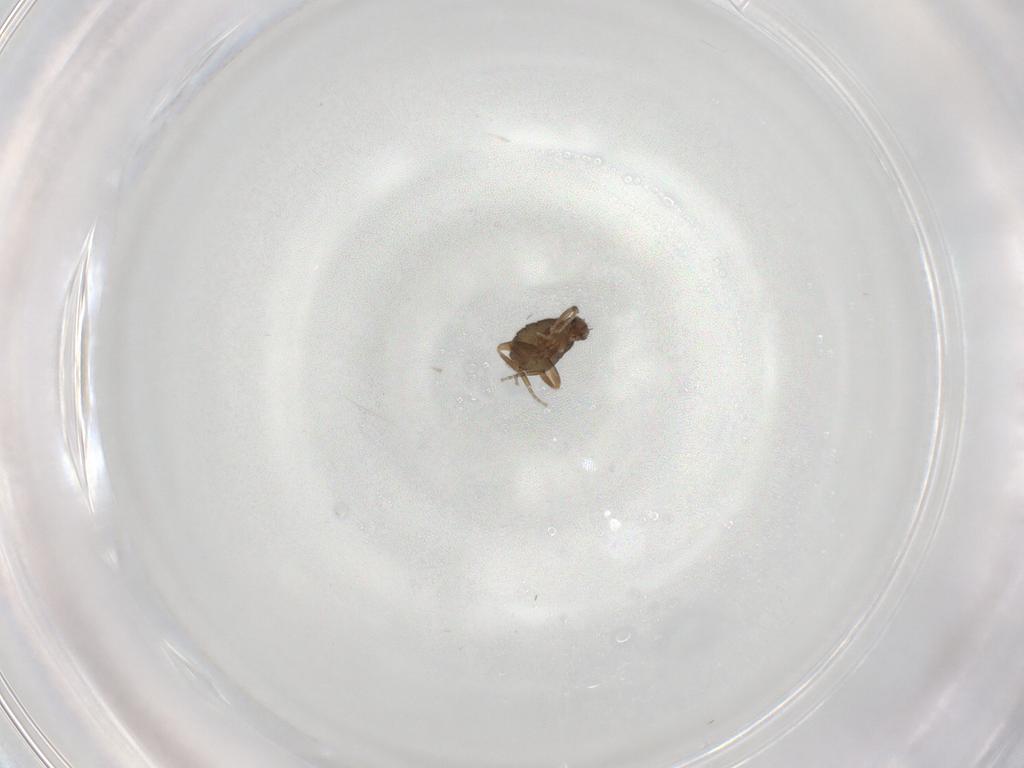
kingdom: Animalia
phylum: Arthropoda
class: Insecta
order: Diptera
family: Phoridae
